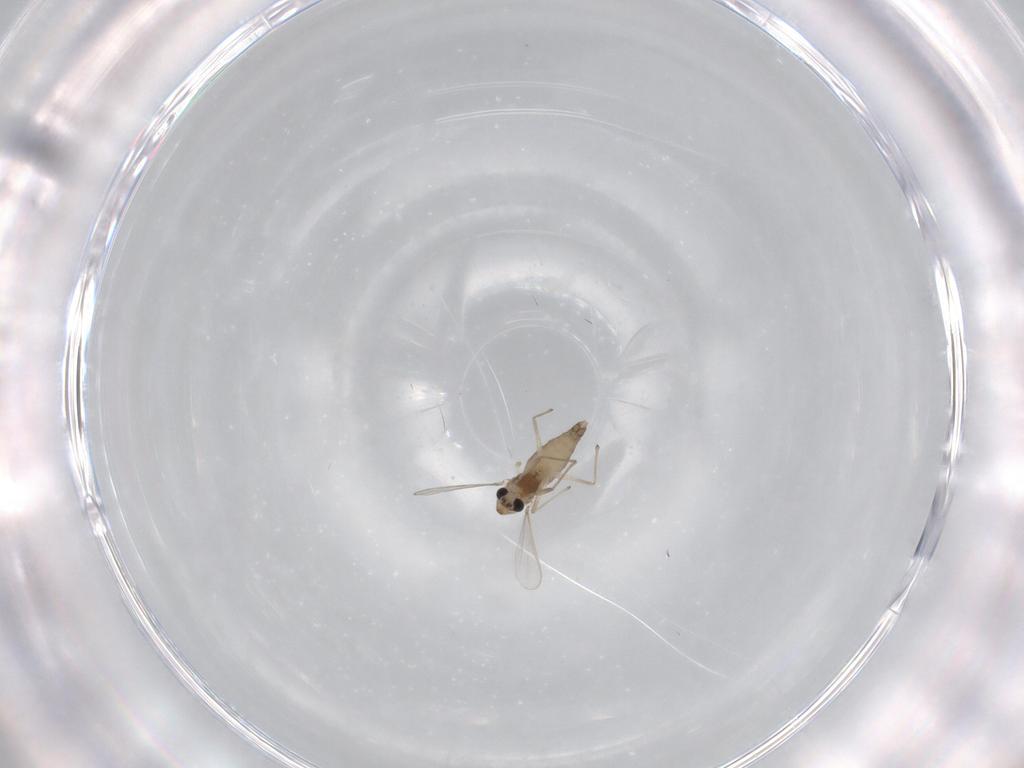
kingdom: Animalia
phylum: Arthropoda
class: Insecta
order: Diptera
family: Chironomidae
